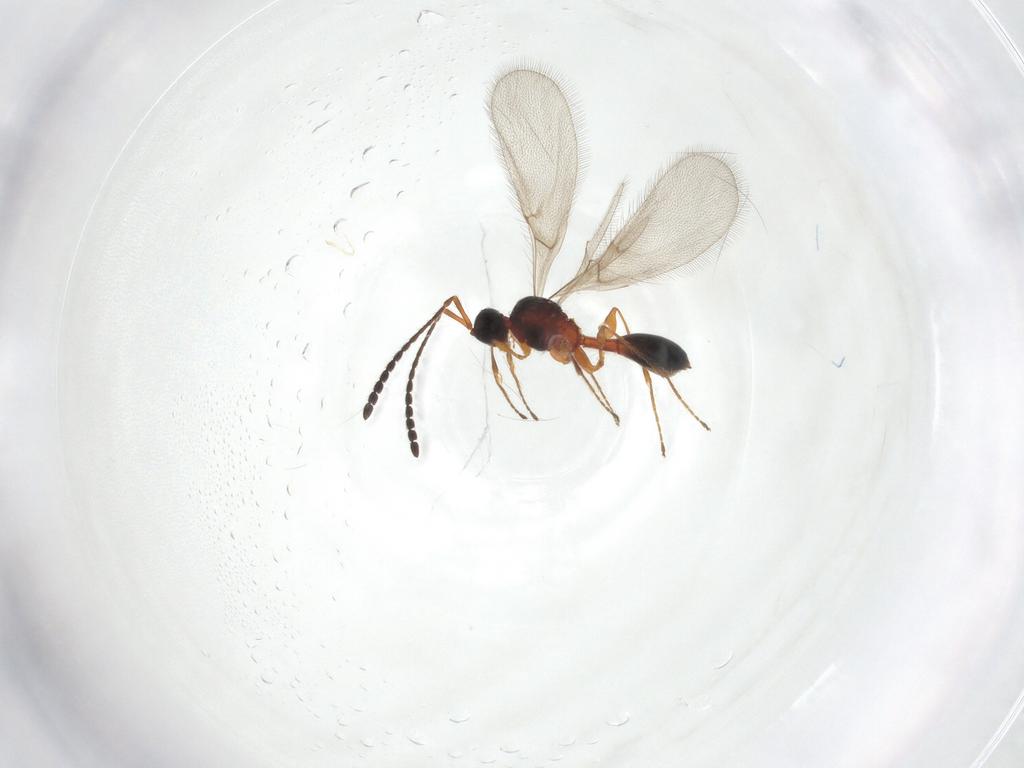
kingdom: Animalia
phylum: Arthropoda
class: Insecta
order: Hymenoptera
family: Diapriidae
